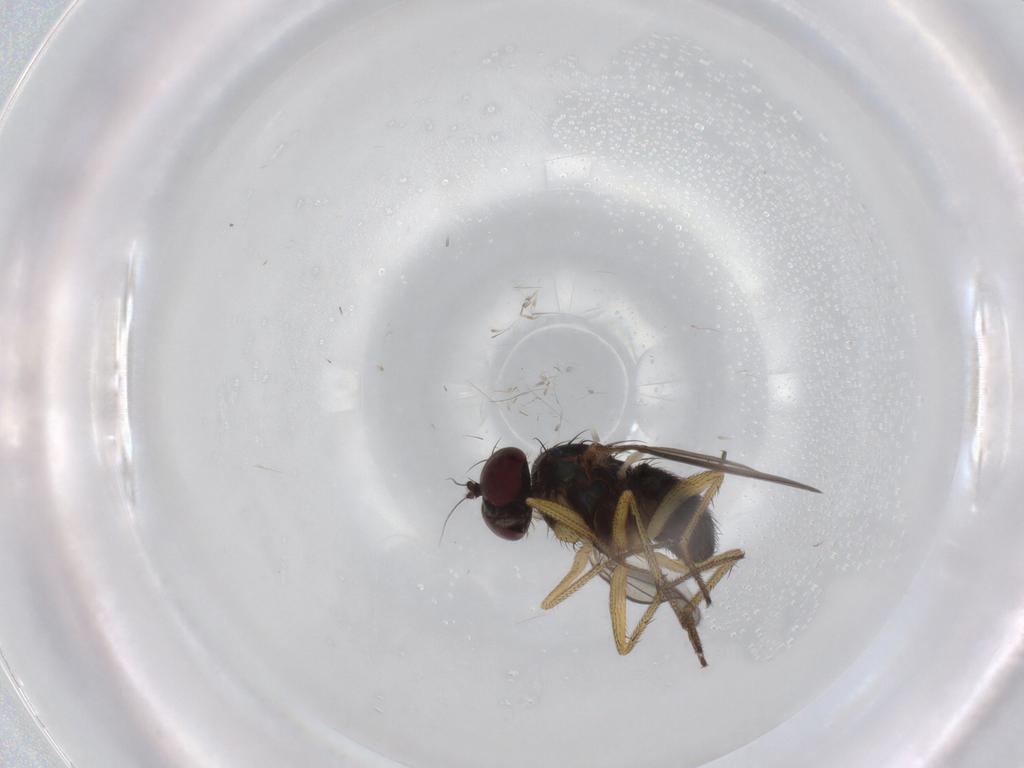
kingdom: Animalia
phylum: Arthropoda
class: Insecta
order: Diptera
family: Sciaridae
